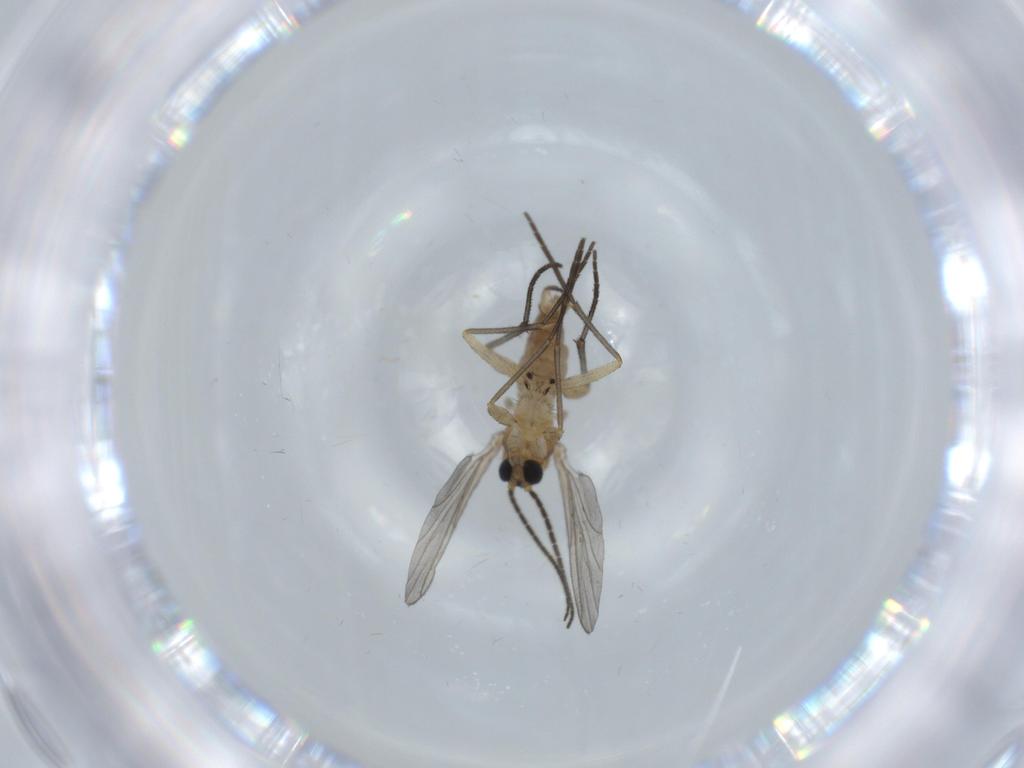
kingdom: Animalia
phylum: Arthropoda
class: Insecta
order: Diptera
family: Sciaridae
